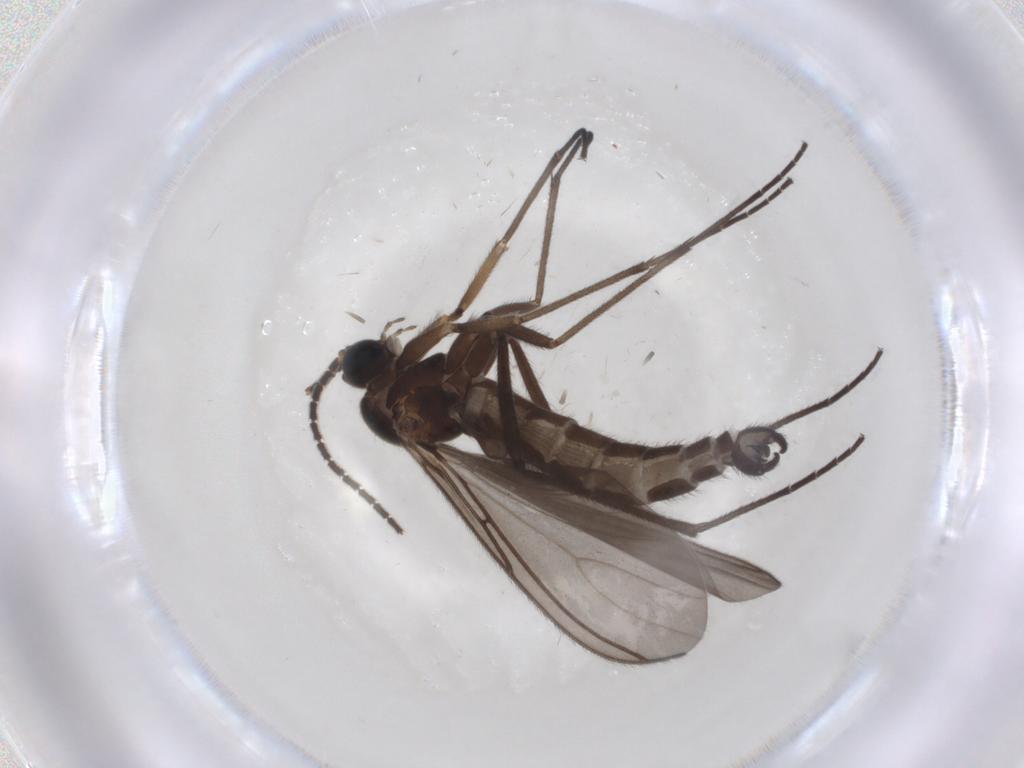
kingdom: Animalia
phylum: Arthropoda
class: Insecta
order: Diptera
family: Sciaridae
